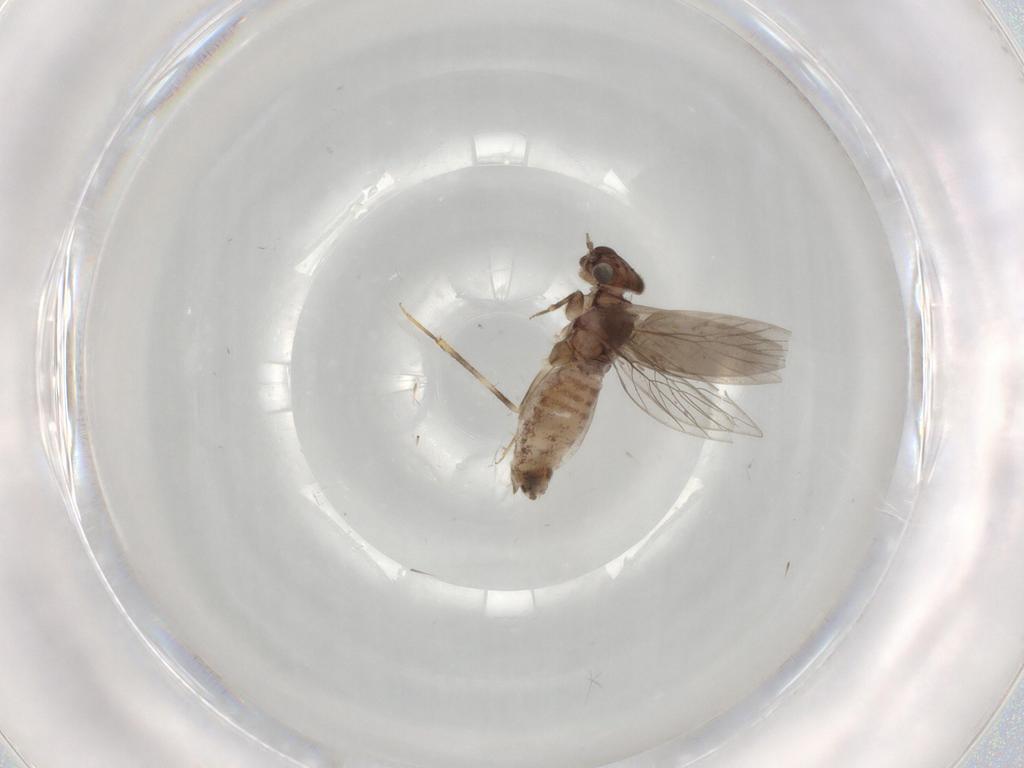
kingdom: Animalia
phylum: Arthropoda
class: Insecta
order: Psocodea
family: Lepidopsocidae
